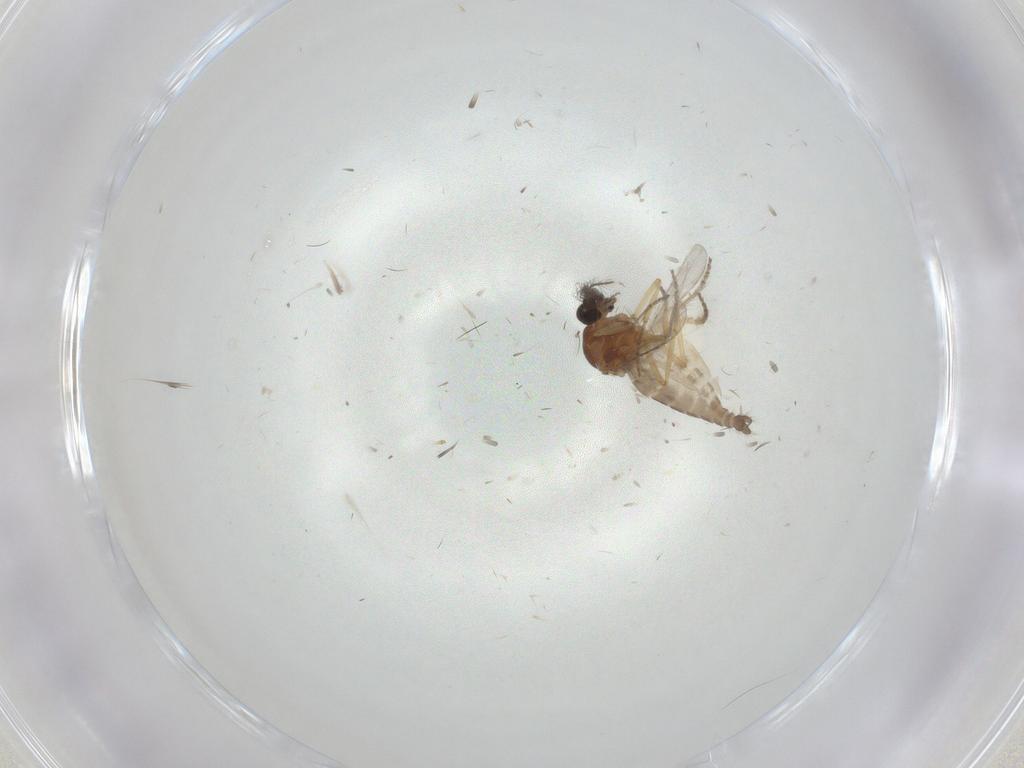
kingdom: Animalia
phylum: Arthropoda
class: Insecta
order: Diptera
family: Ceratopogonidae
